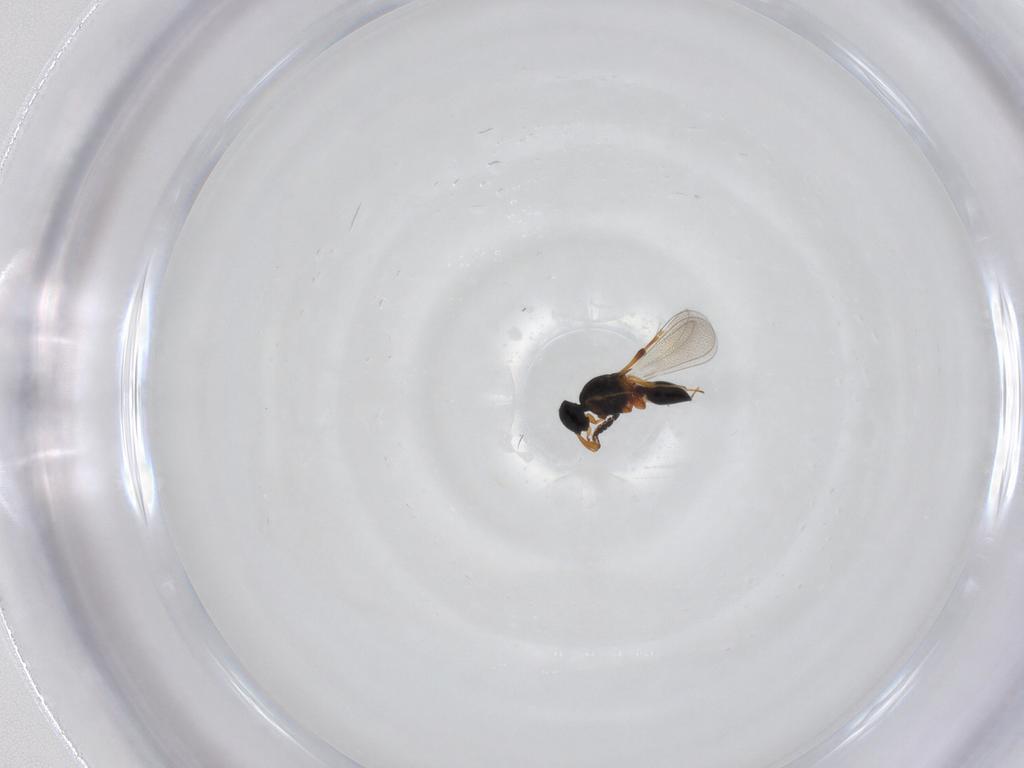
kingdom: Animalia
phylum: Arthropoda
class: Insecta
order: Hymenoptera
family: Platygastridae
